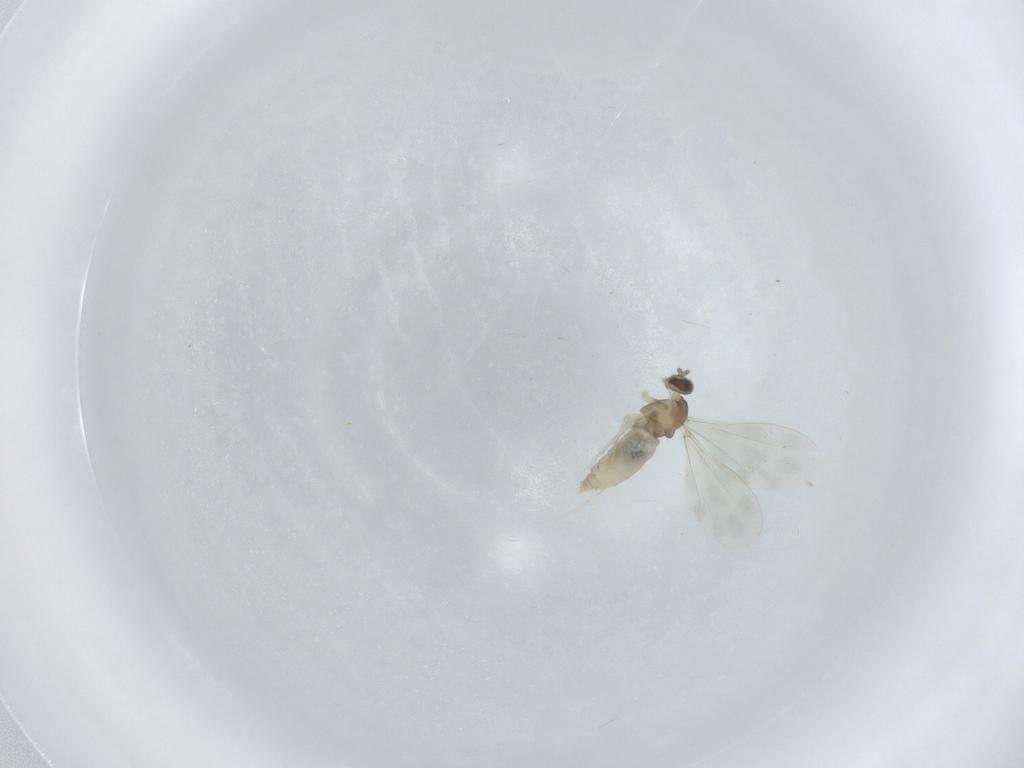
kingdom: Animalia
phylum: Arthropoda
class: Insecta
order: Diptera
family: Cecidomyiidae
